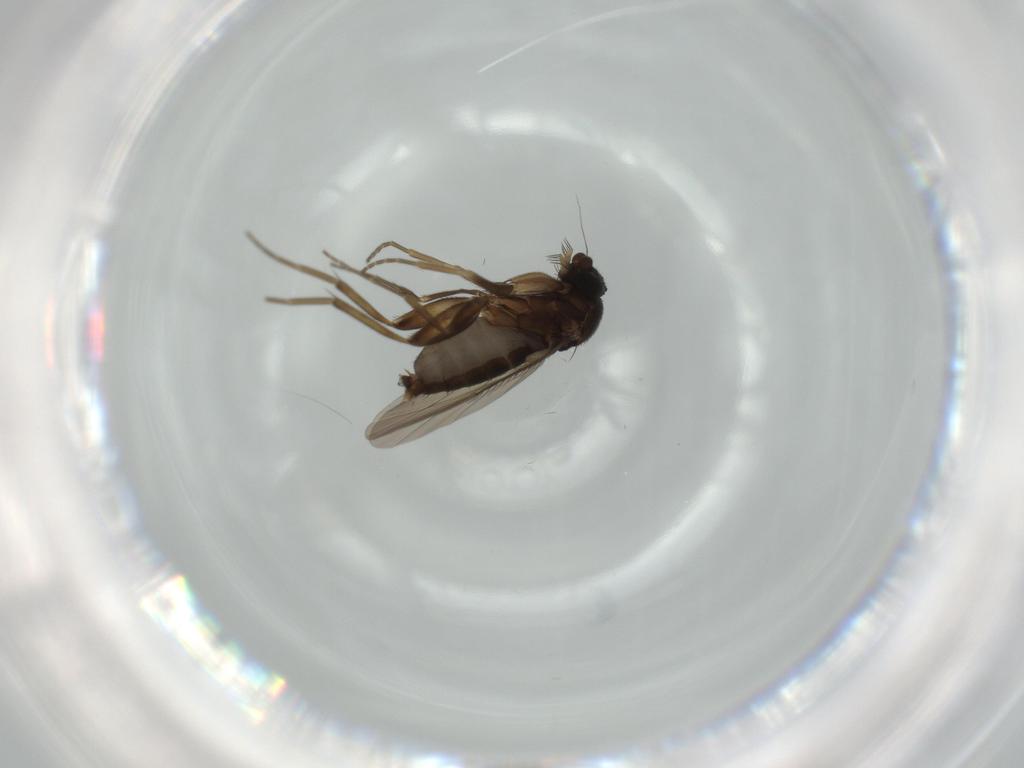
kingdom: Animalia
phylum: Arthropoda
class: Insecta
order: Diptera
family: Phoridae
